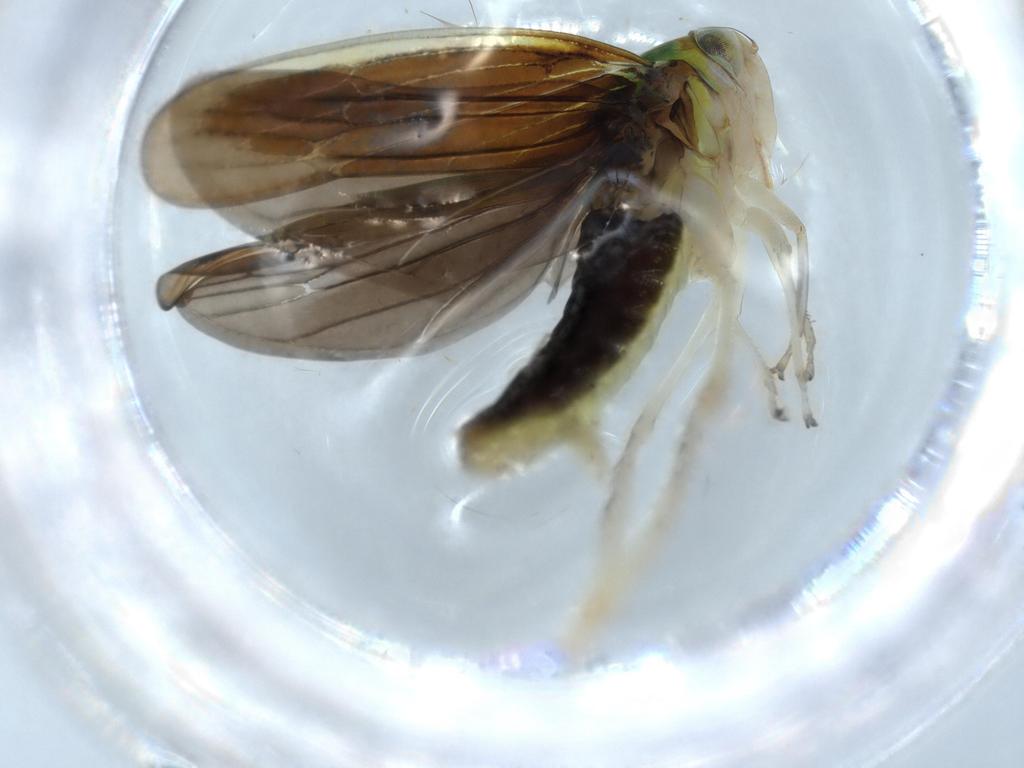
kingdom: Animalia
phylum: Arthropoda
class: Insecta
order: Hemiptera
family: Cicadellidae
